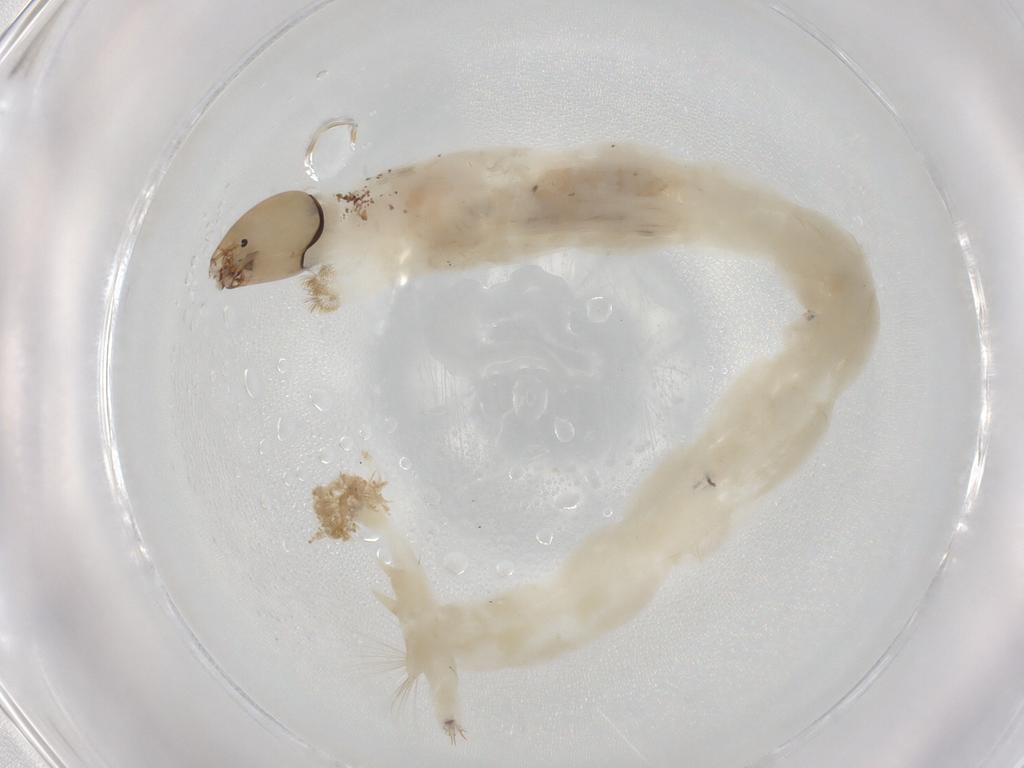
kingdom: Animalia
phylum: Arthropoda
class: Insecta
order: Diptera
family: Chironomidae
